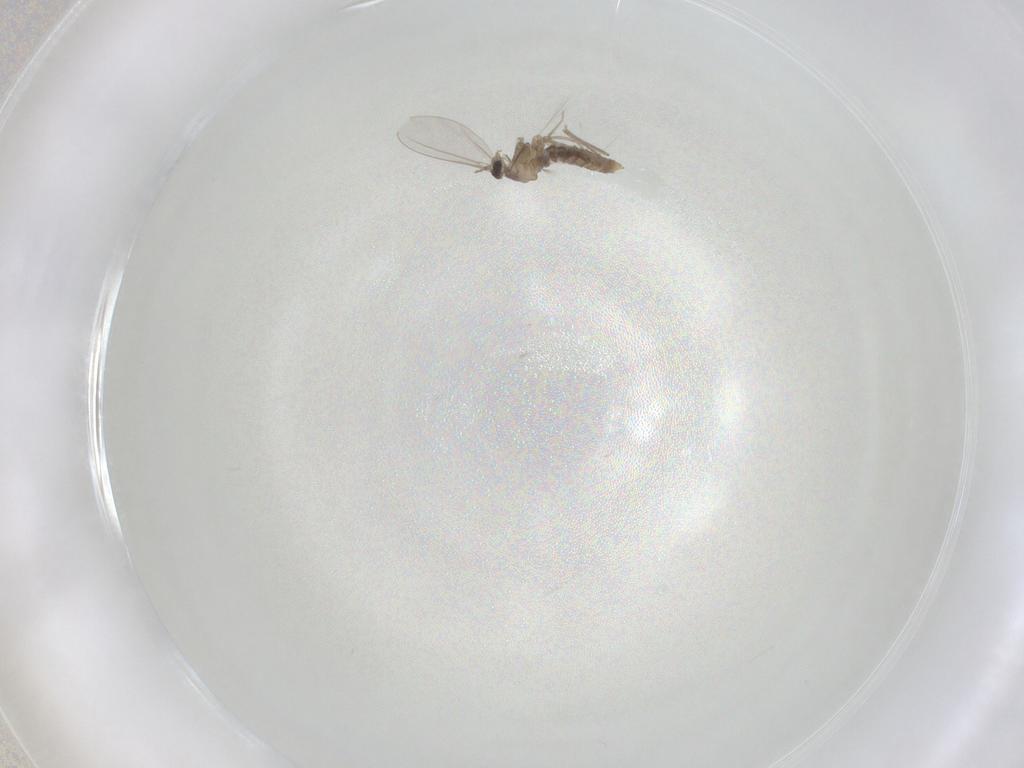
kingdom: Animalia
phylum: Arthropoda
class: Insecta
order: Diptera
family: Cecidomyiidae
